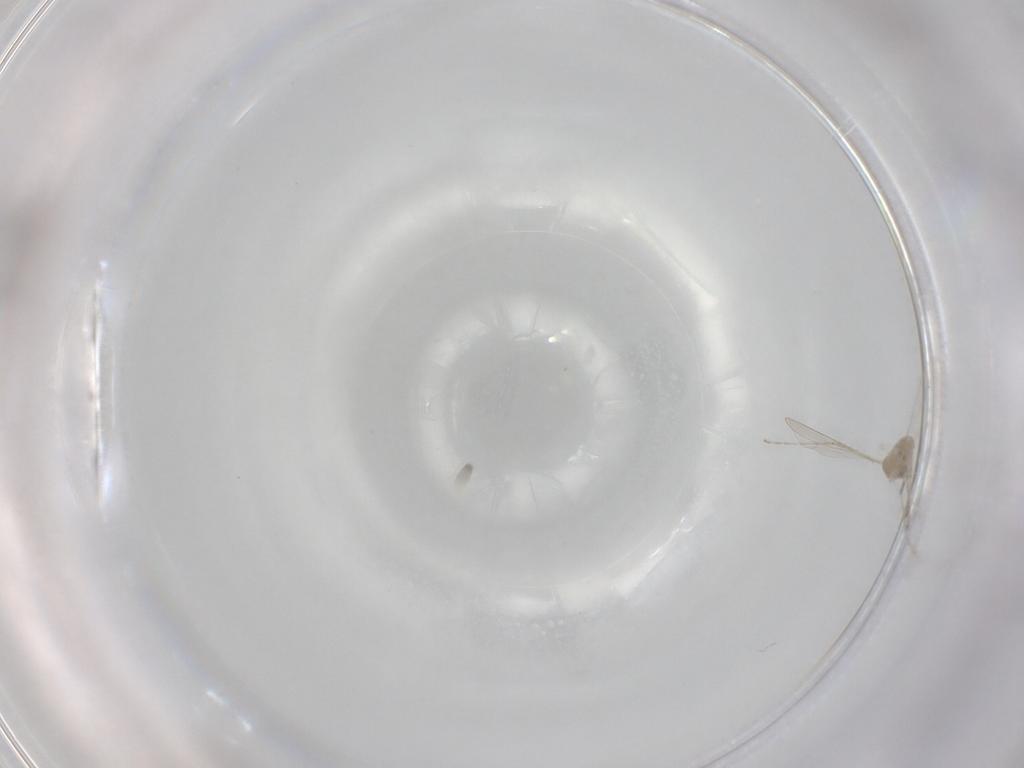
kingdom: Animalia
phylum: Arthropoda
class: Insecta
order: Diptera
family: Cecidomyiidae
